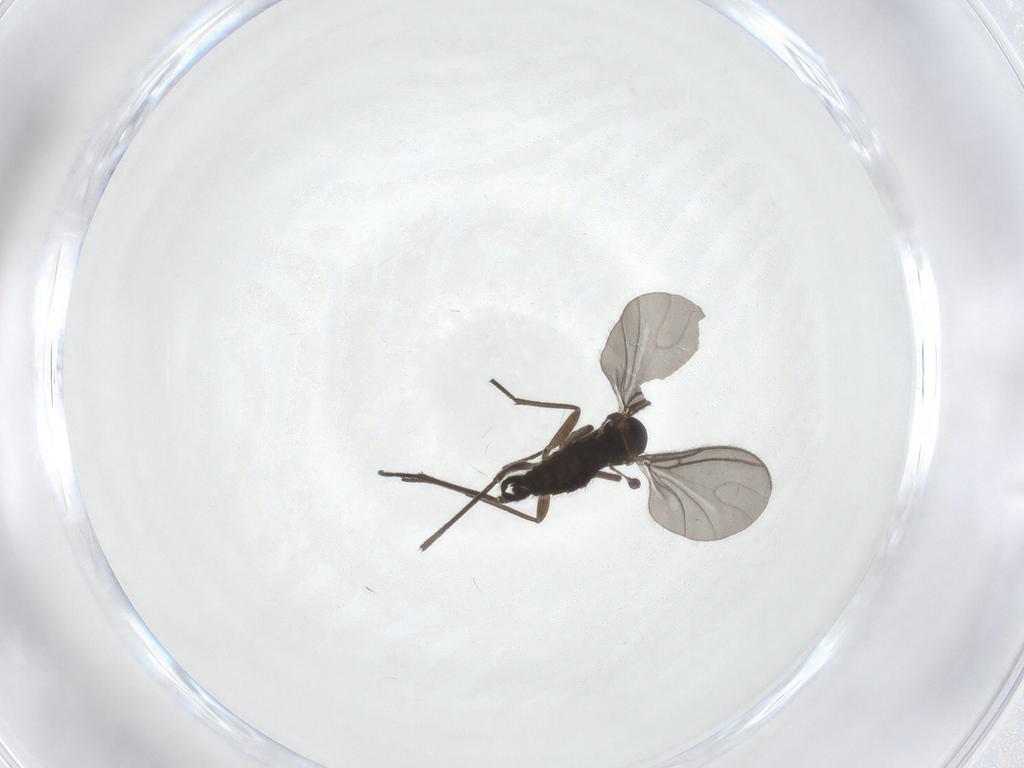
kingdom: Animalia
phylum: Arthropoda
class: Insecta
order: Diptera
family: Sciaridae
